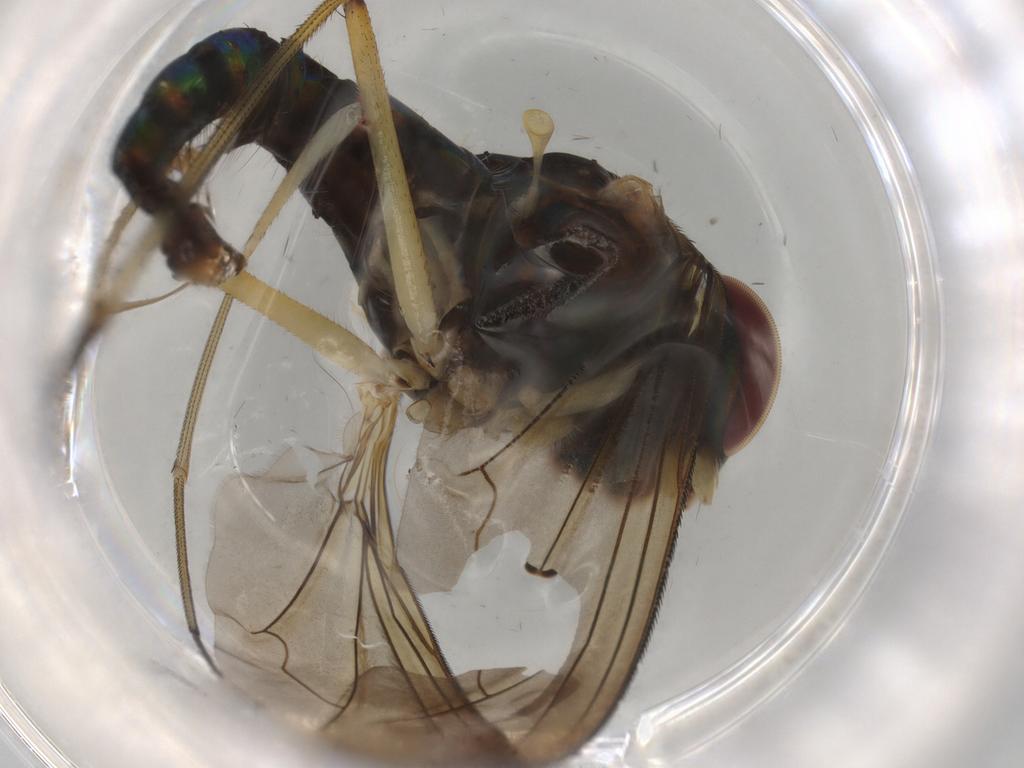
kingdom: Animalia
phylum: Arthropoda
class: Insecta
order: Diptera
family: Dolichopodidae
